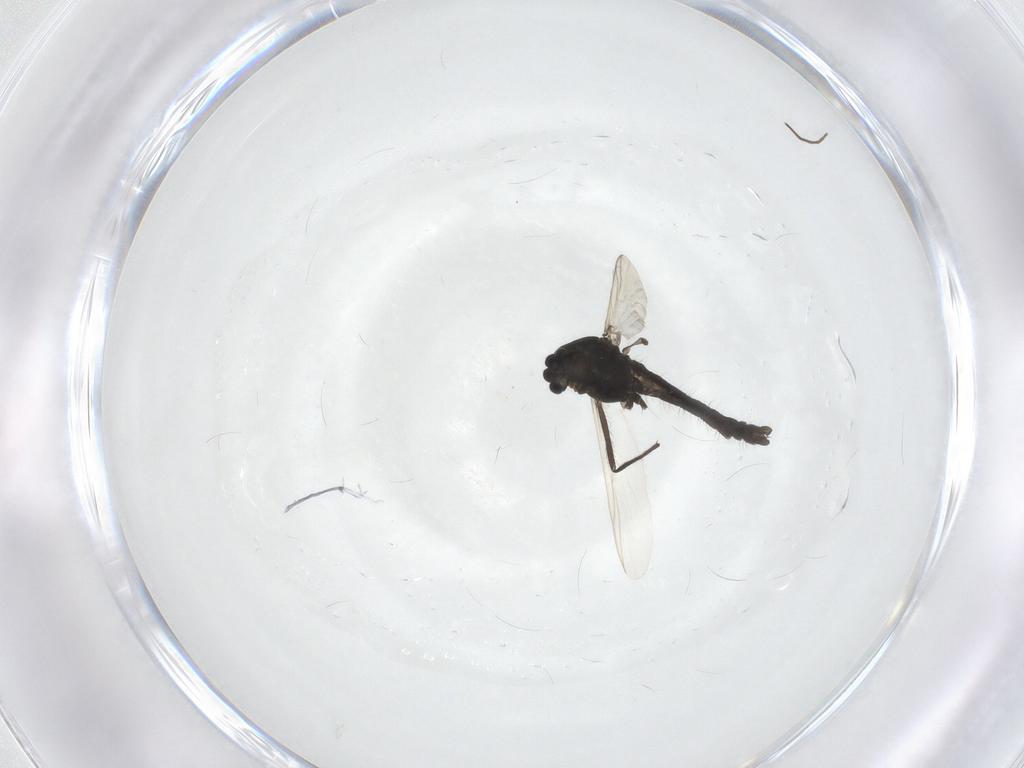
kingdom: Animalia
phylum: Arthropoda
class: Insecta
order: Diptera
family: Chironomidae
